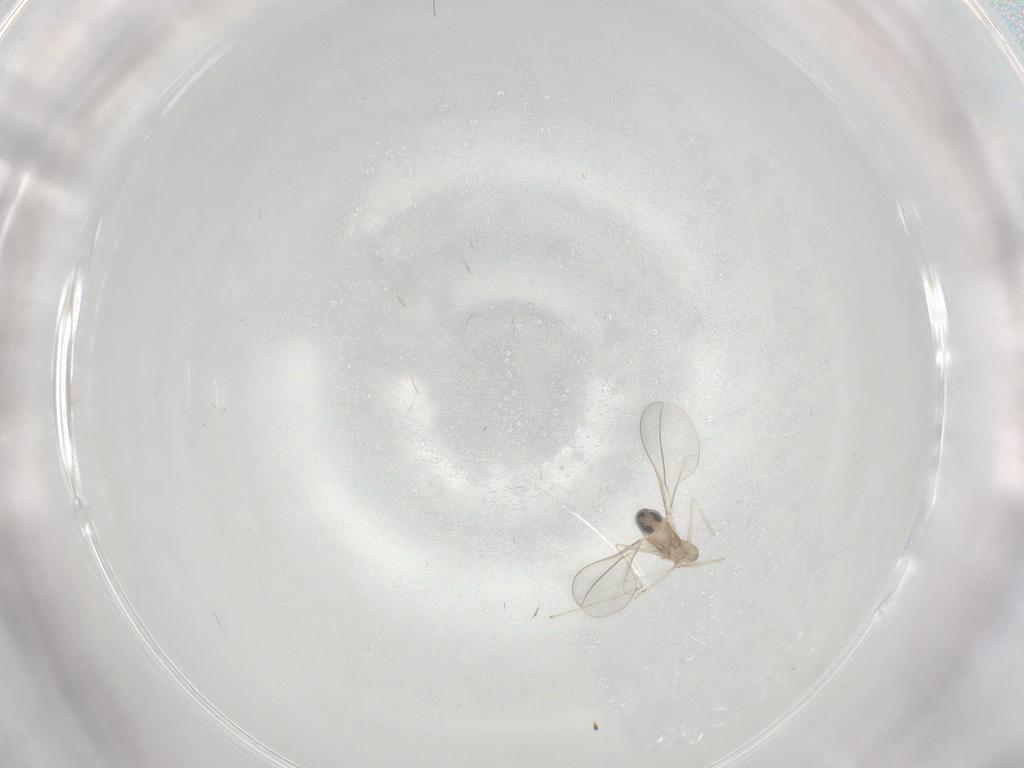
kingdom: Animalia
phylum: Arthropoda
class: Insecta
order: Diptera
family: Cecidomyiidae
